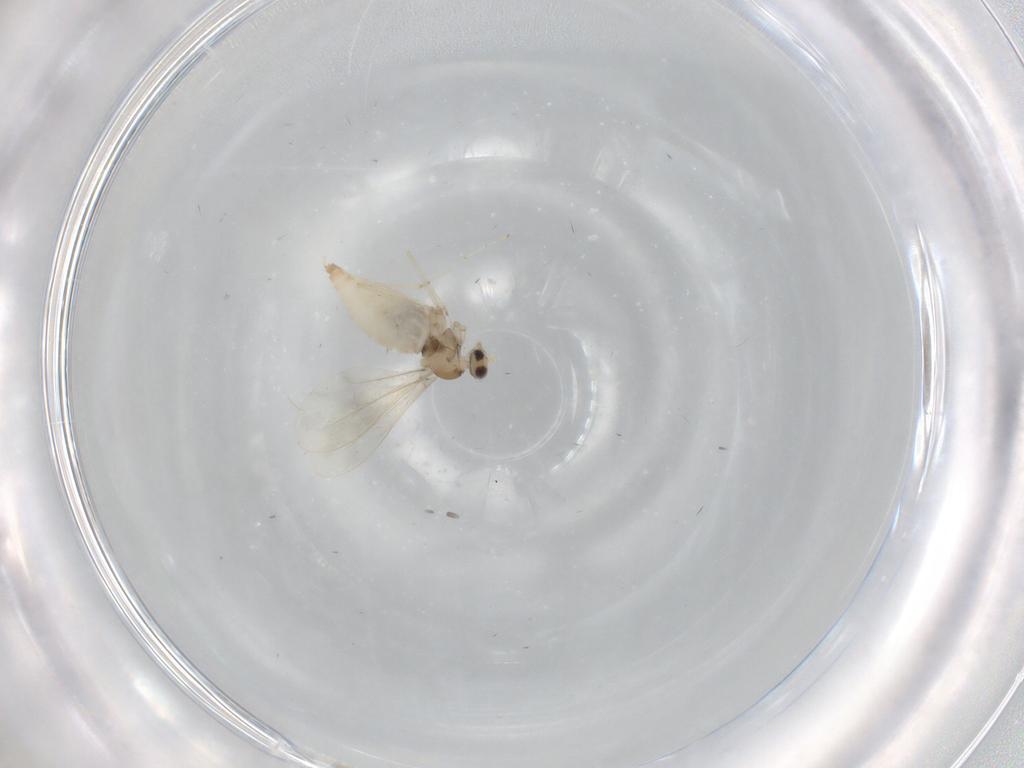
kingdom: Animalia
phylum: Arthropoda
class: Insecta
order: Diptera
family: Cecidomyiidae
